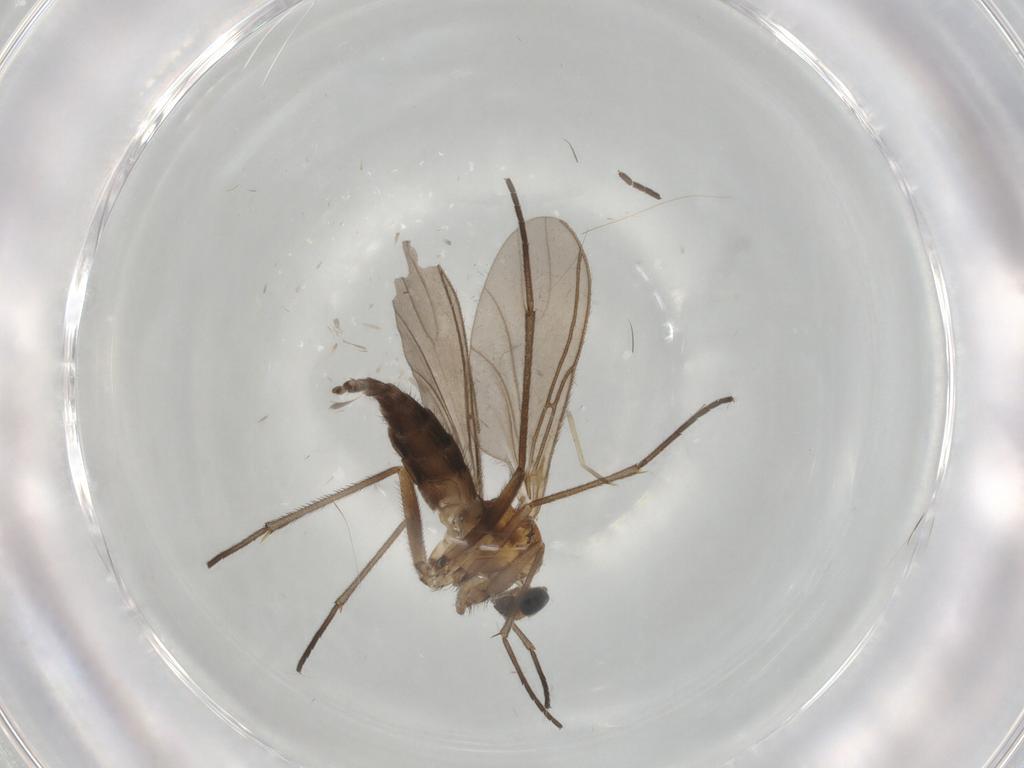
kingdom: Animalia
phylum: Arthropoda
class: Insecta
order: Diptera
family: Sciaridae
